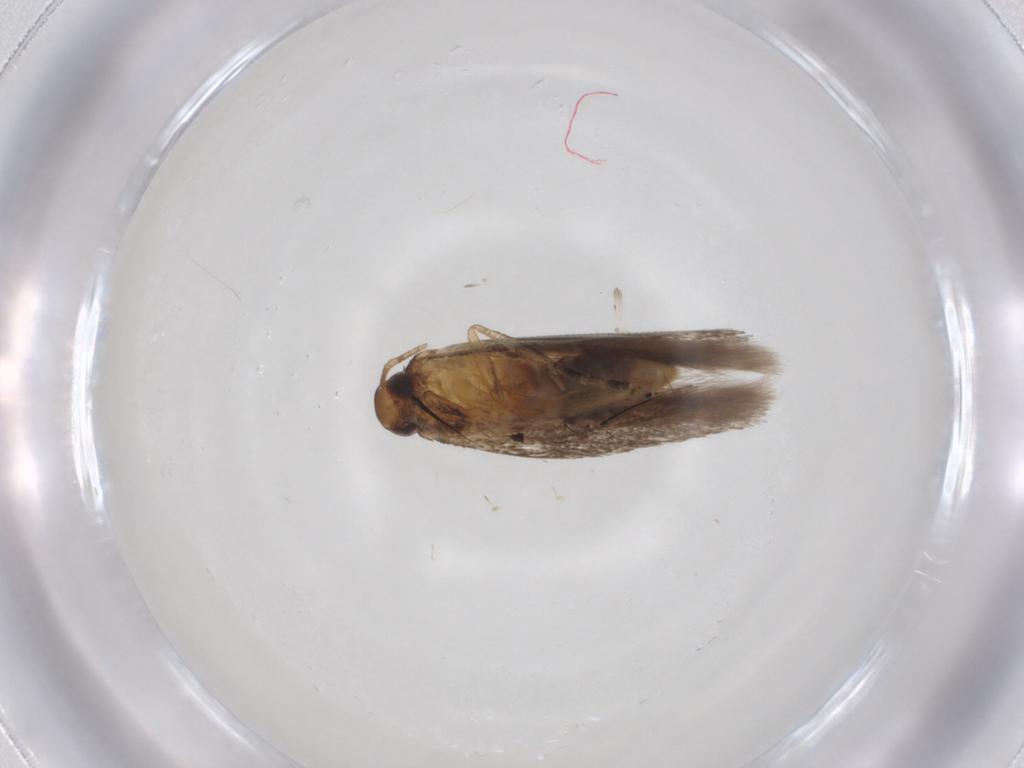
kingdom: Animalia
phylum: Arthropoda
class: Insecta
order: Lepidoptera
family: Gelechiidae
